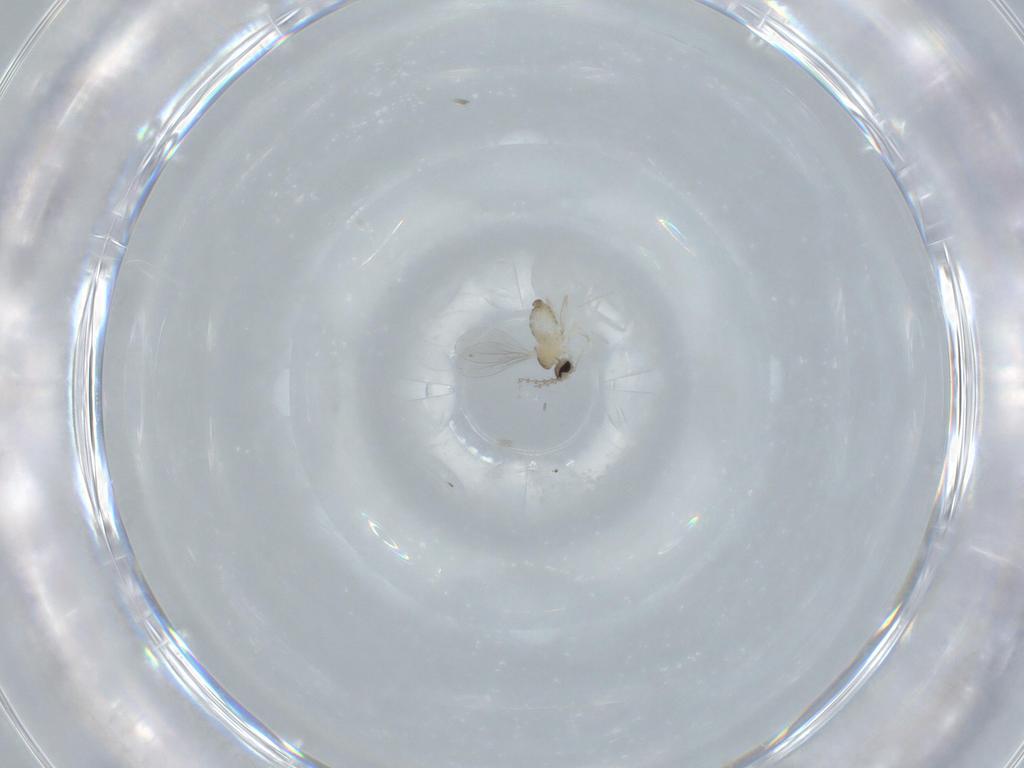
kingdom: Animalia
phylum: Arthropoda
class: Insecta
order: Diptera
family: Cecidomyiidae
